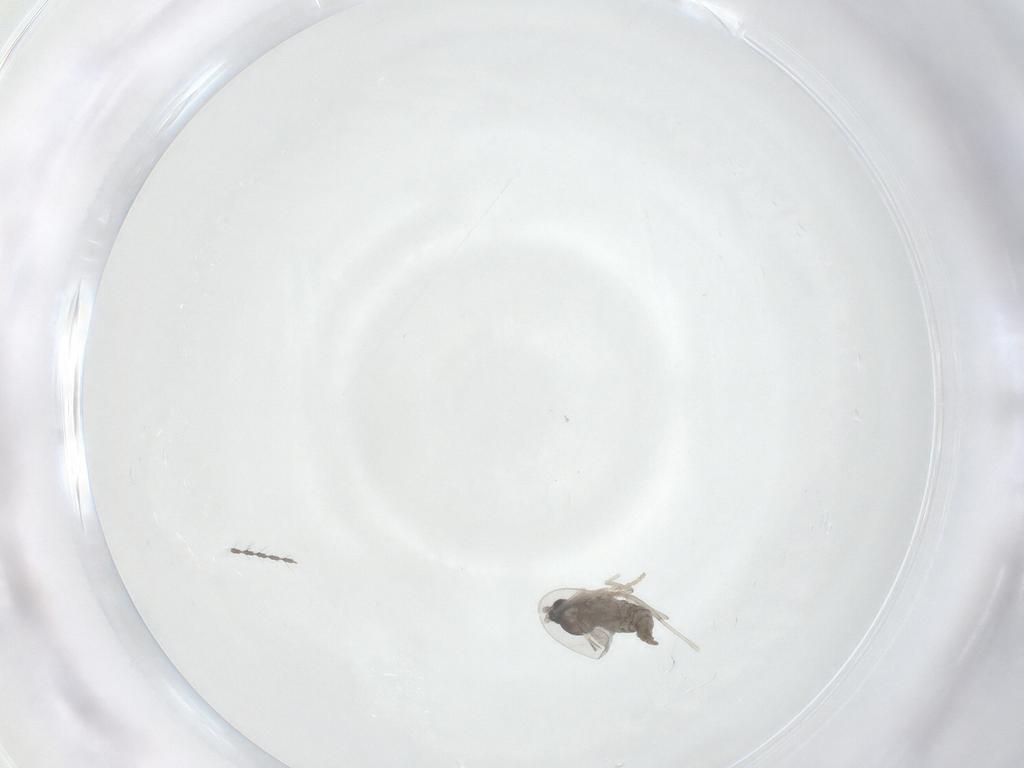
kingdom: Animalia
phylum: Arthropoda
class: Insecta
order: Diptera
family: Cecidomyiidae
